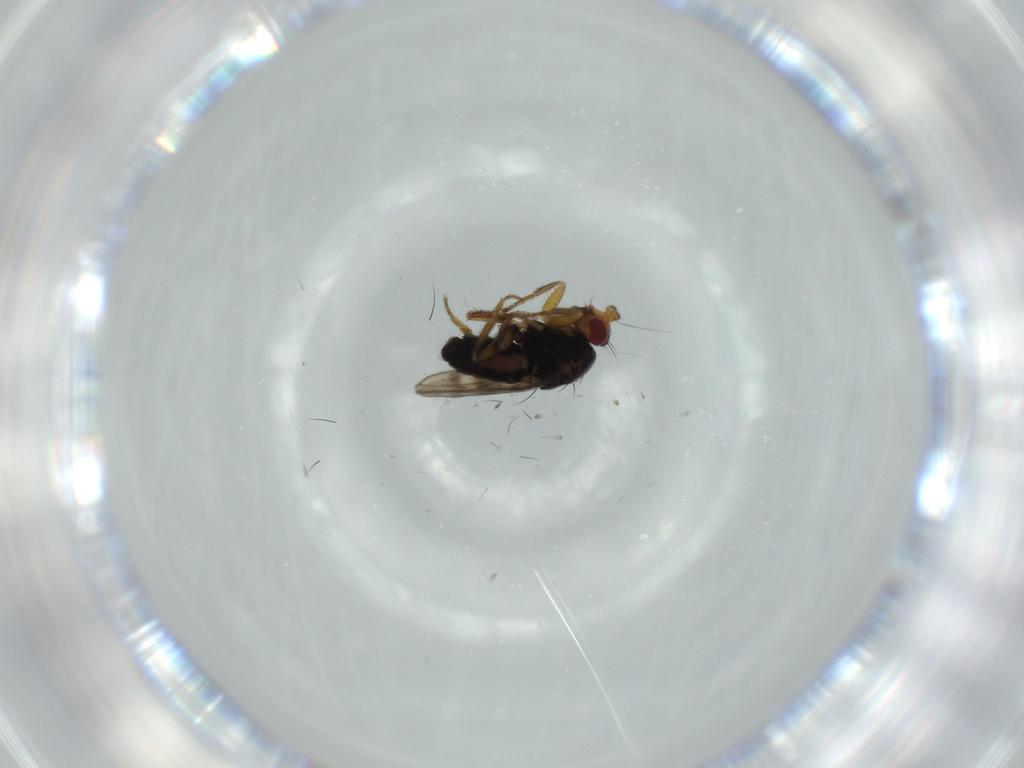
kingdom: Animalia
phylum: Arthropoda
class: Insecta
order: Diptera
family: Sphaeroceridae
